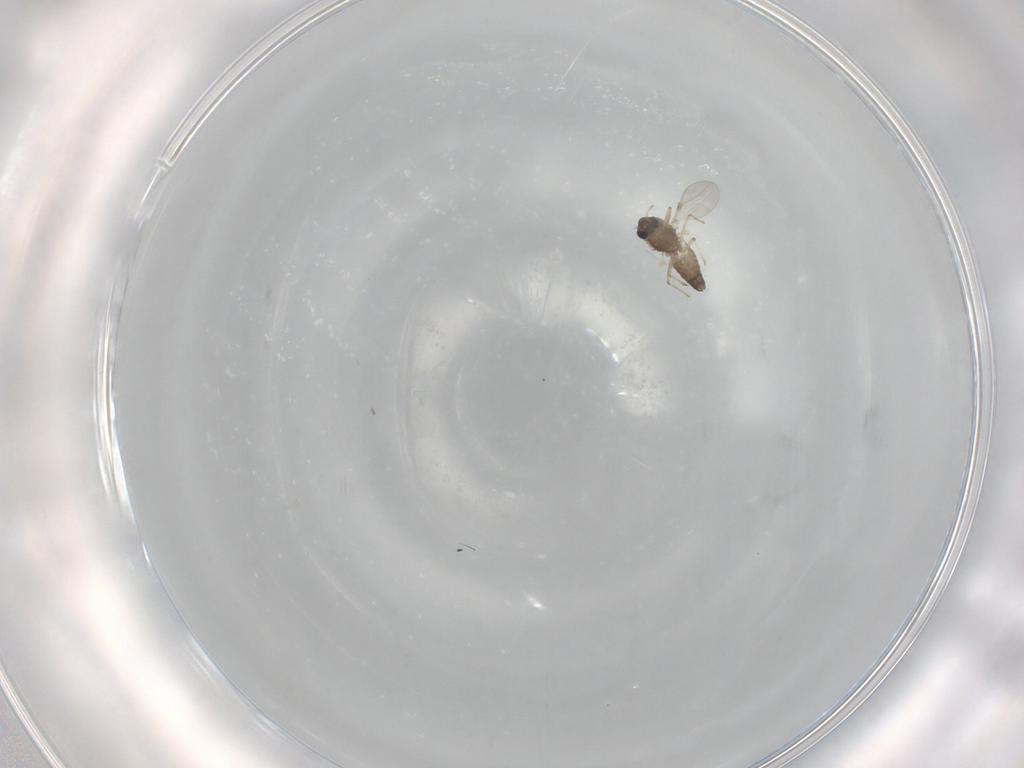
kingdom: Animalia
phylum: Arthropoda
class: Insecta
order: Diptera
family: Chironomidae
